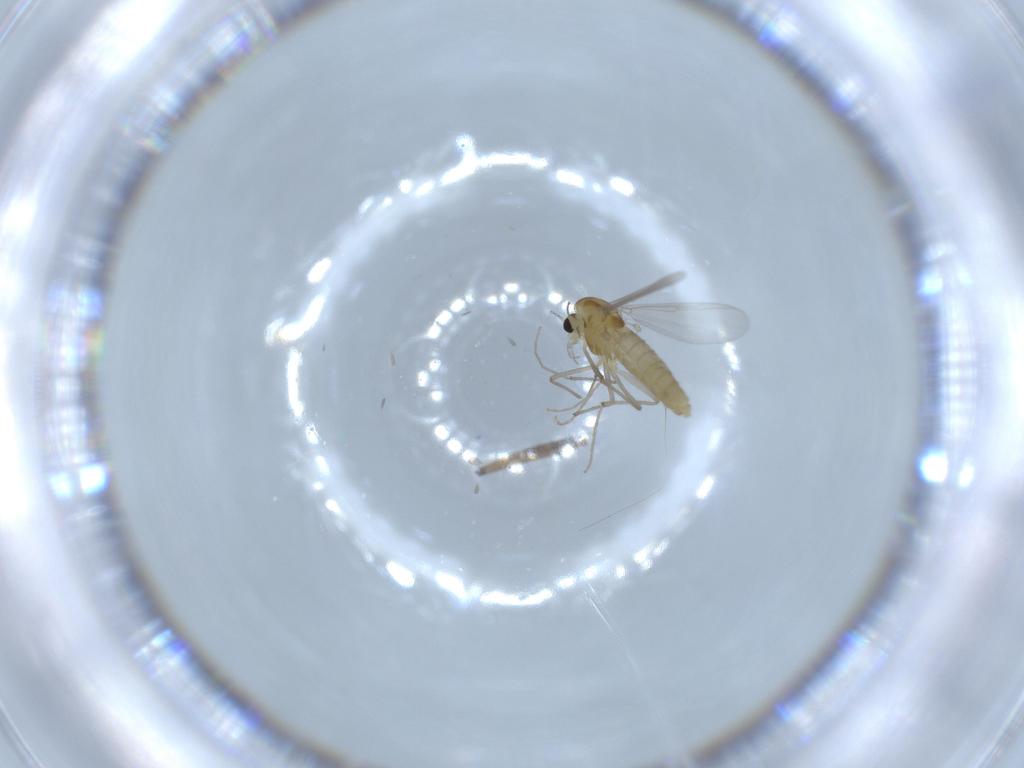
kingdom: Animalia
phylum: Arthropoda
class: Insecta
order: Diptera
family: Chironomidae
